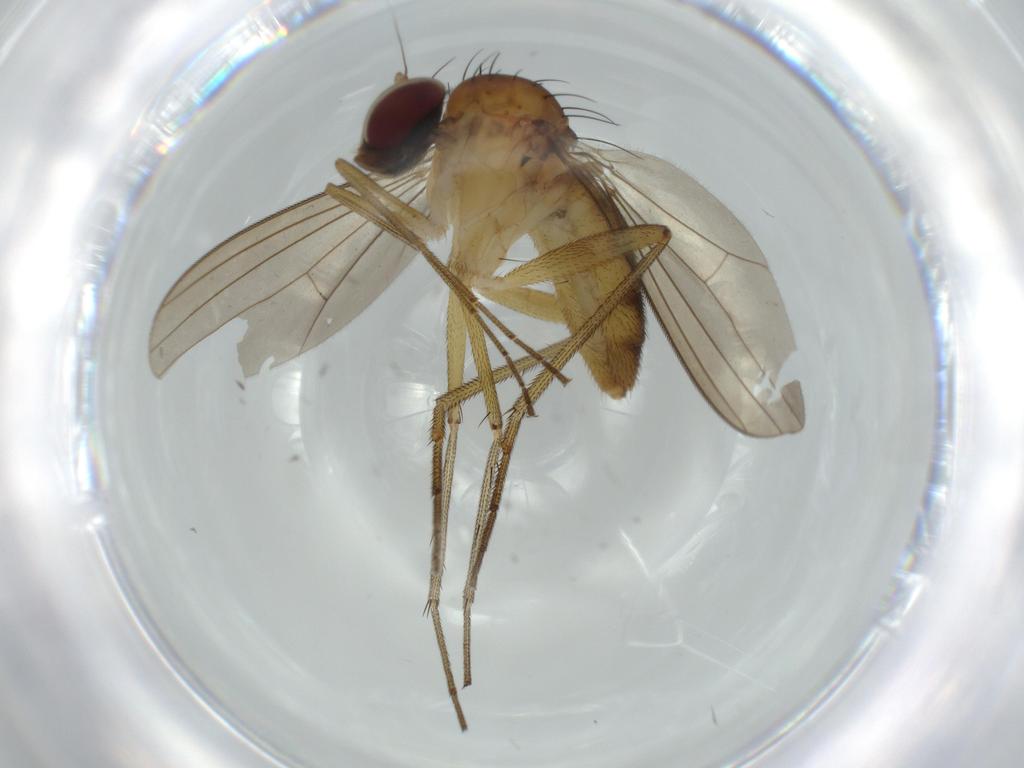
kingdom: Animalia
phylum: Arthropoda
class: Insecta
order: Diptera
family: Dolichopodidae
